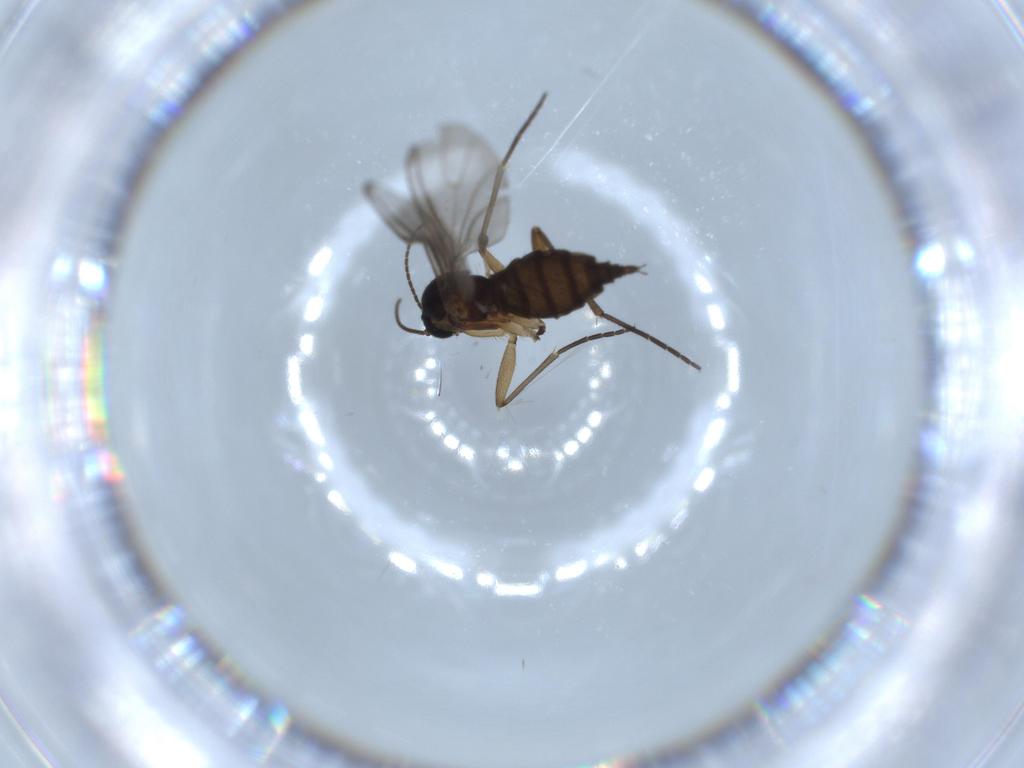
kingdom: Animalia
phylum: Arthropoda
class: Insecta
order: Diptera
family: Sciaridae
